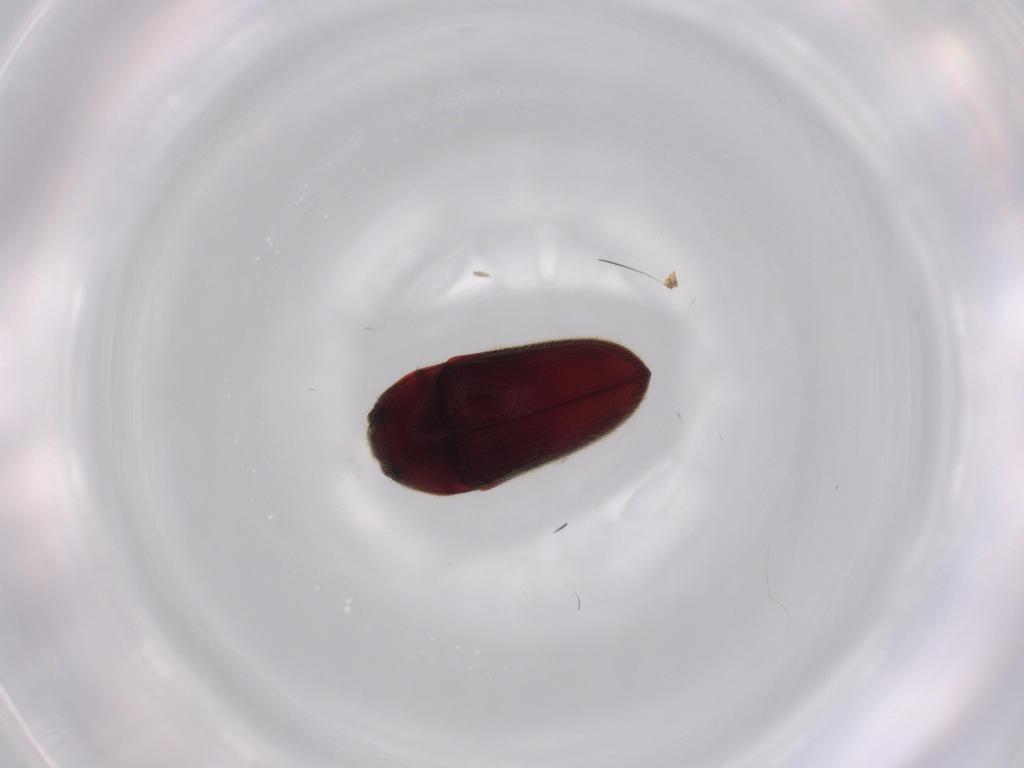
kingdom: Animalia
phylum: Arthropoda
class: Insecta
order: Coleoptera
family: Throscidae
